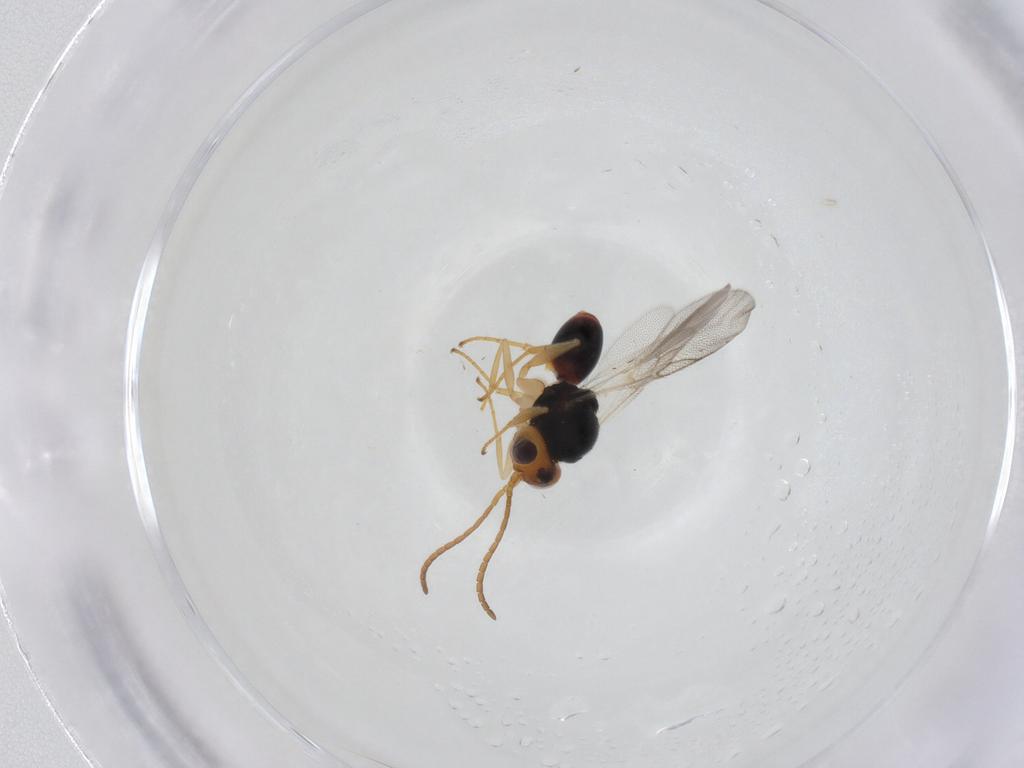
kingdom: Animalia
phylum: Arthropoda
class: Insecta
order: Hymenoptera
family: Cynipidae
